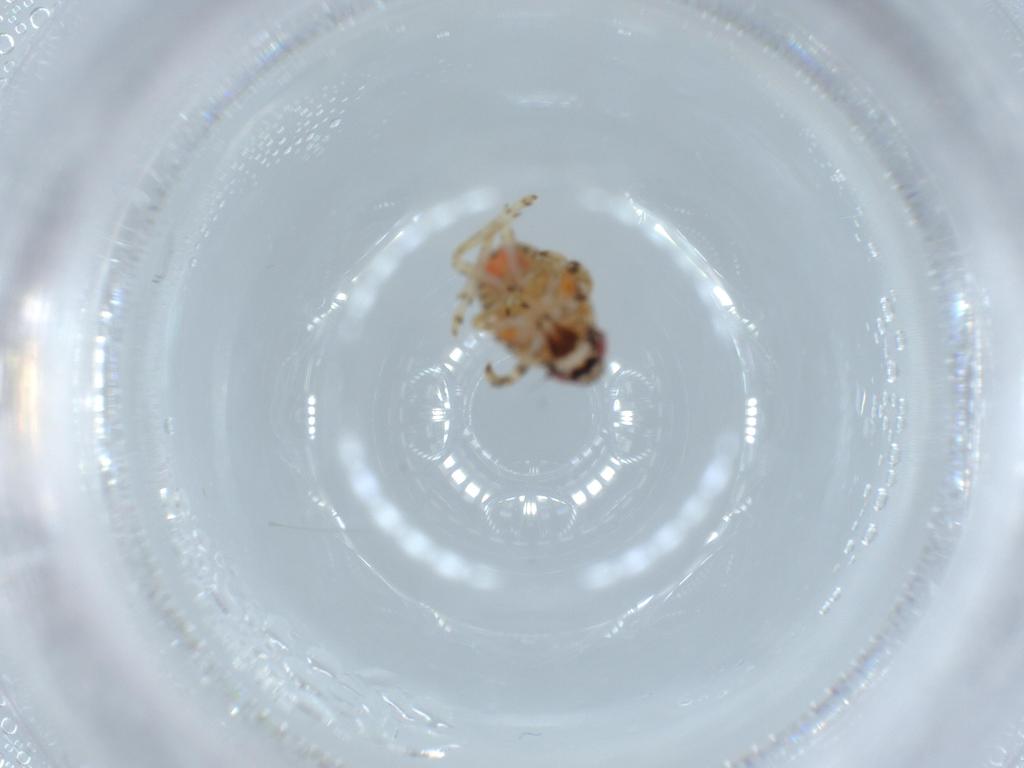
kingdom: Animalia
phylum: Arthropoda
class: Insecta
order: Hemiptera
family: Issidae
